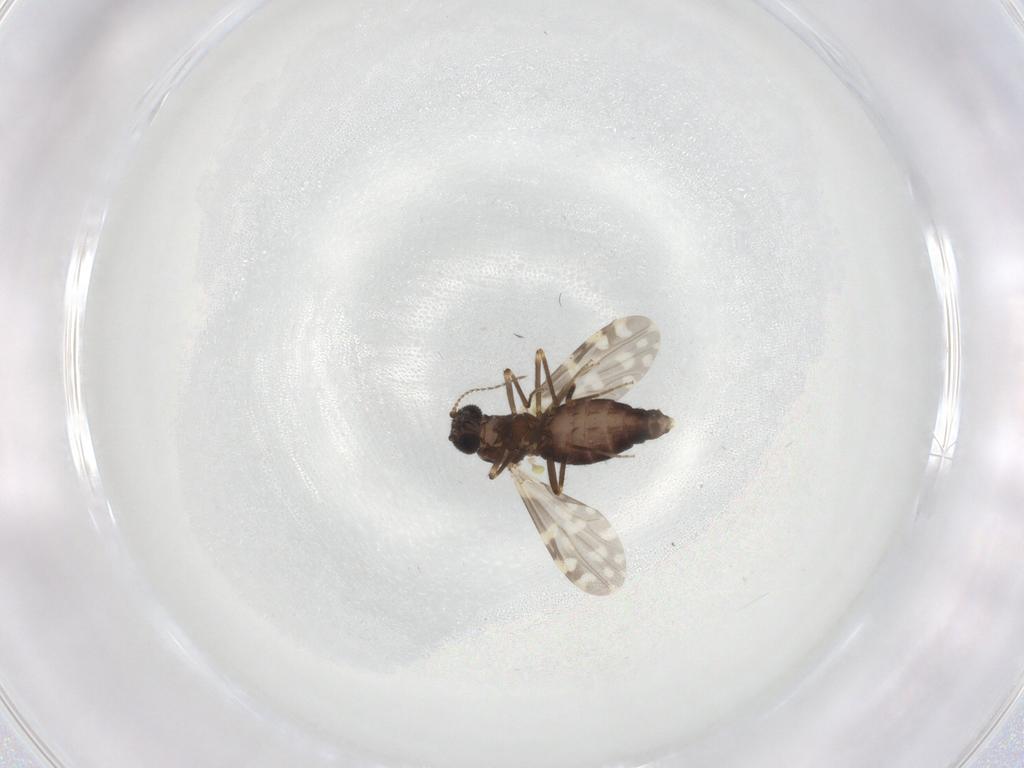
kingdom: Animalia
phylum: Arthropoda
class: Insecta
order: Diptera
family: Ceratopogonidae
